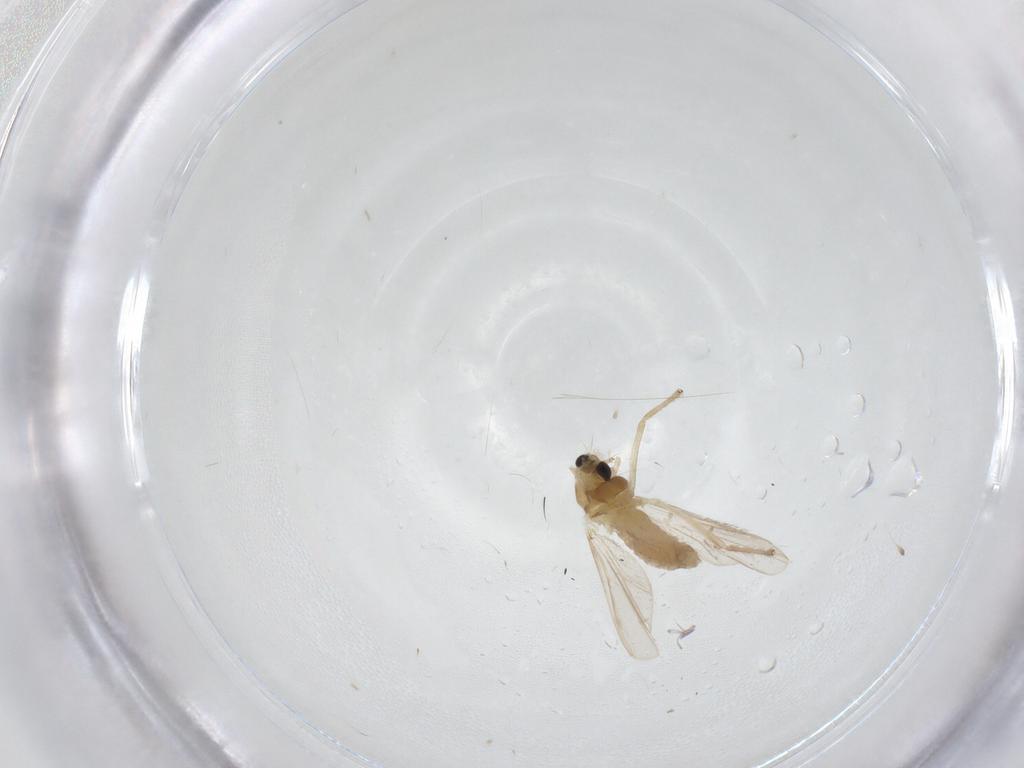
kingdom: Animalia
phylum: Arthropoda
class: Insecta
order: Diptera
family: Chironomidae
